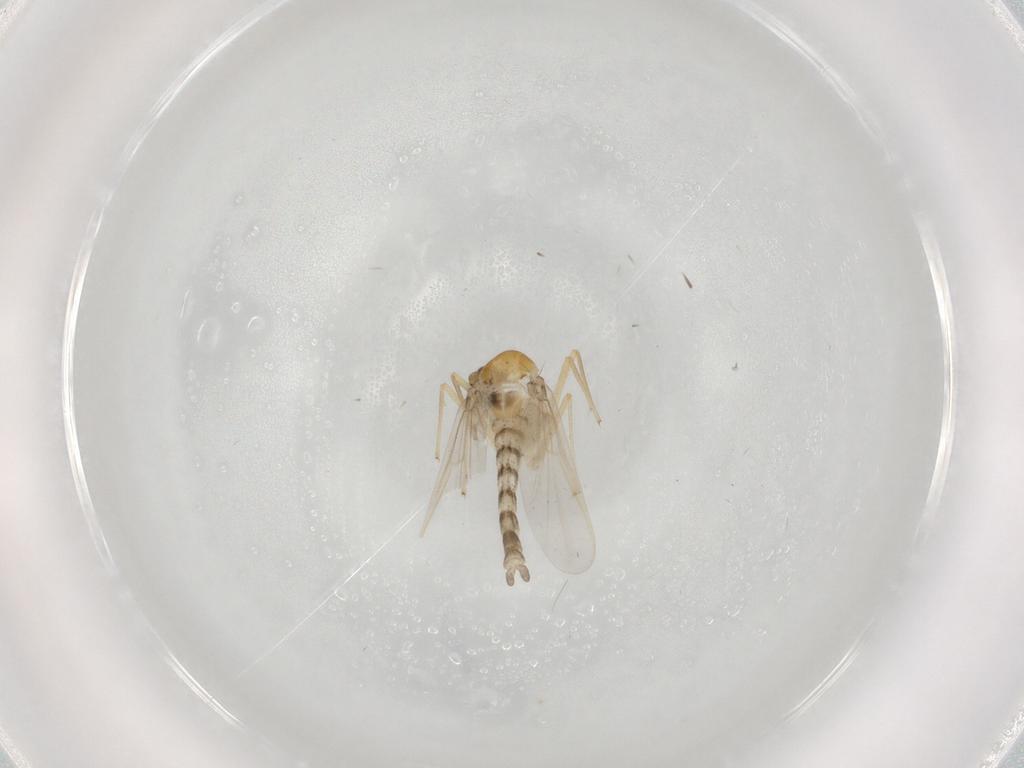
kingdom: Animalia
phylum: Arthropoda
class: Insecta
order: Diptera
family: Chironomidae
